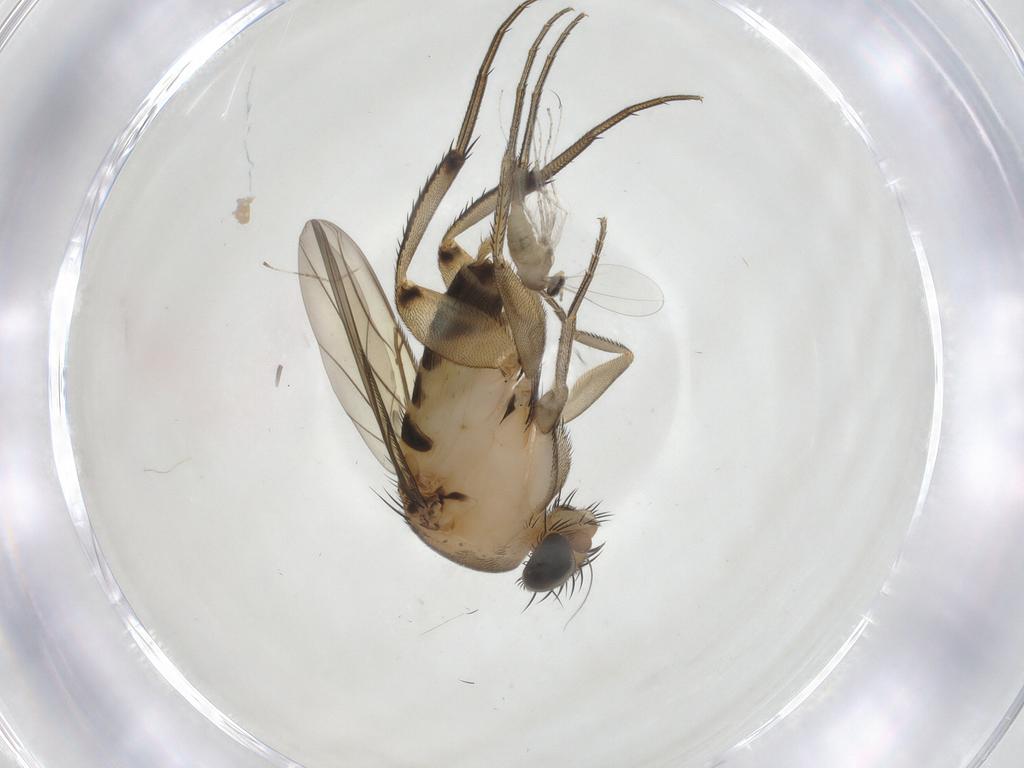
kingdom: Animalia
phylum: Arthropoda
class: Insecta
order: Diptera
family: Phoridae
